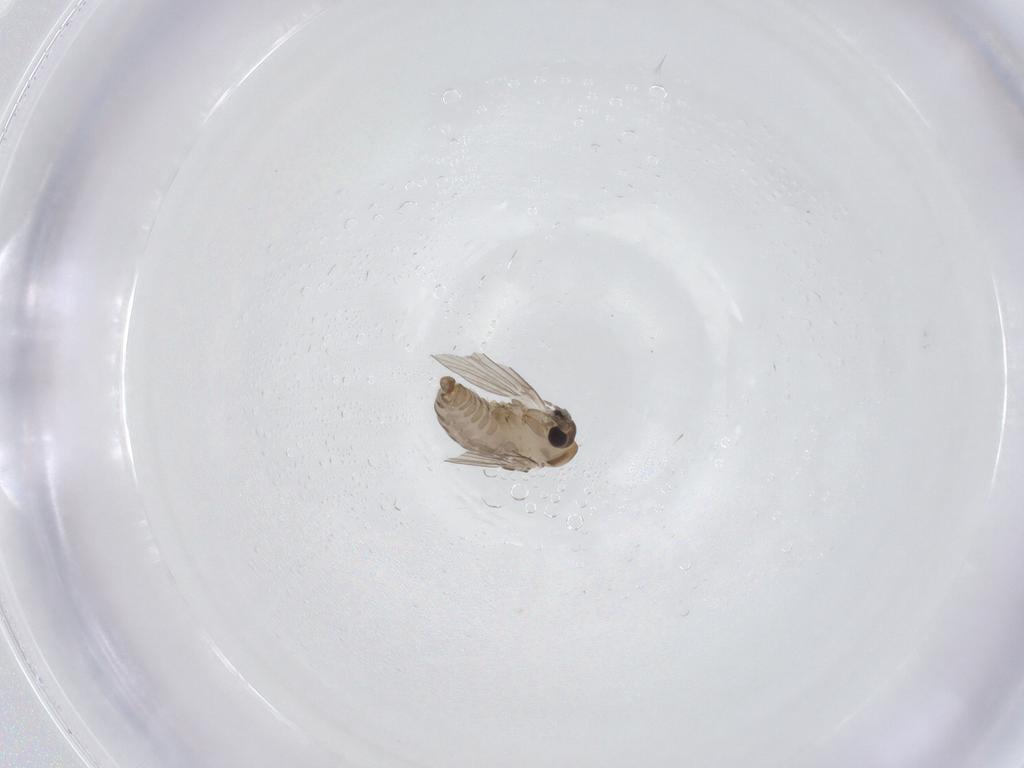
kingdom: Animalia
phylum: Arthropoda
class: Insecta
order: Diptera
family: Psychodidae
